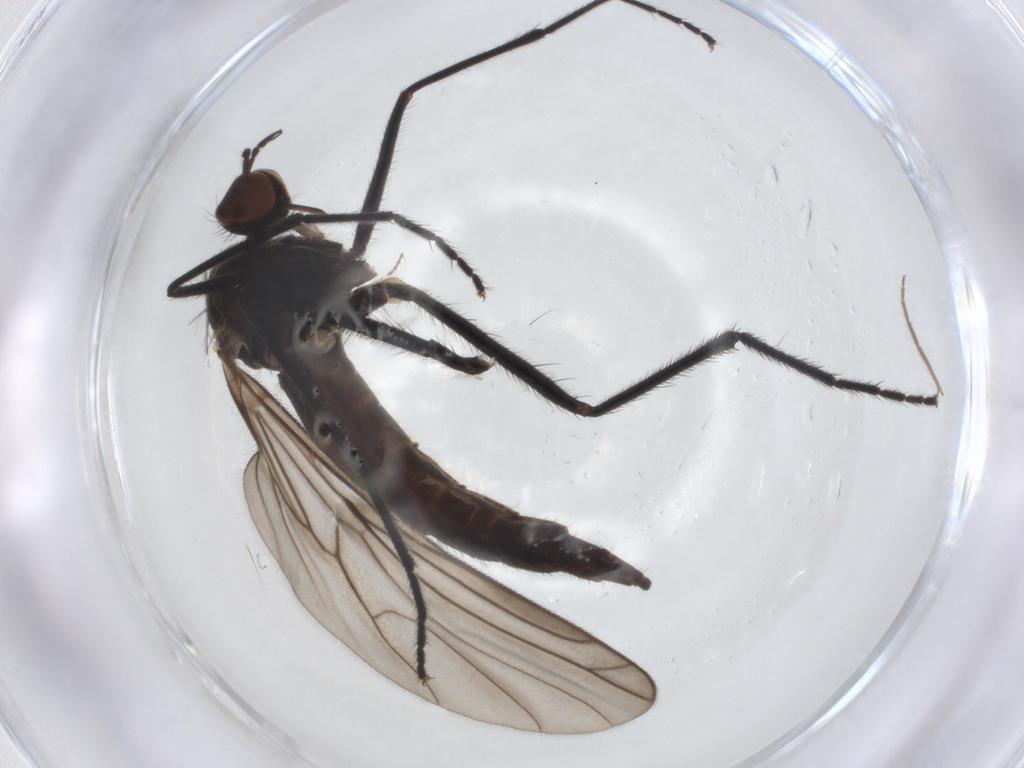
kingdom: Animalia
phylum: Arthropoda
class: Insecta
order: Diptera
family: Empididae
